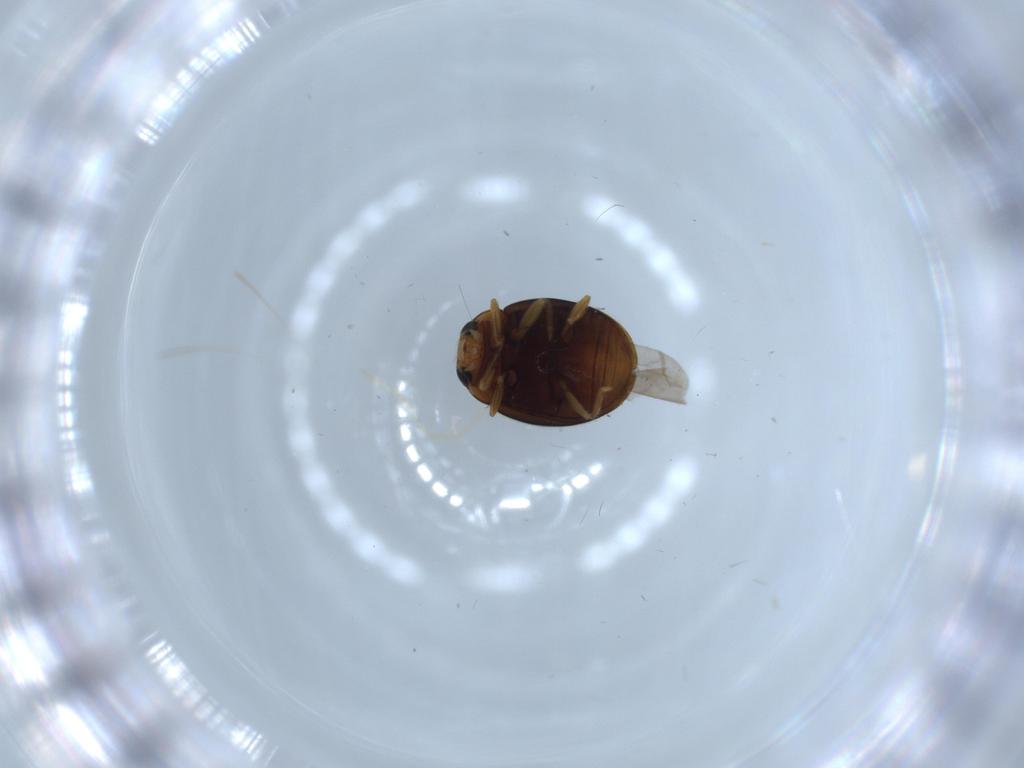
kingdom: Animalia
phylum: Arthropoda
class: Insecta
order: Coleoptera
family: Coccinellidae
